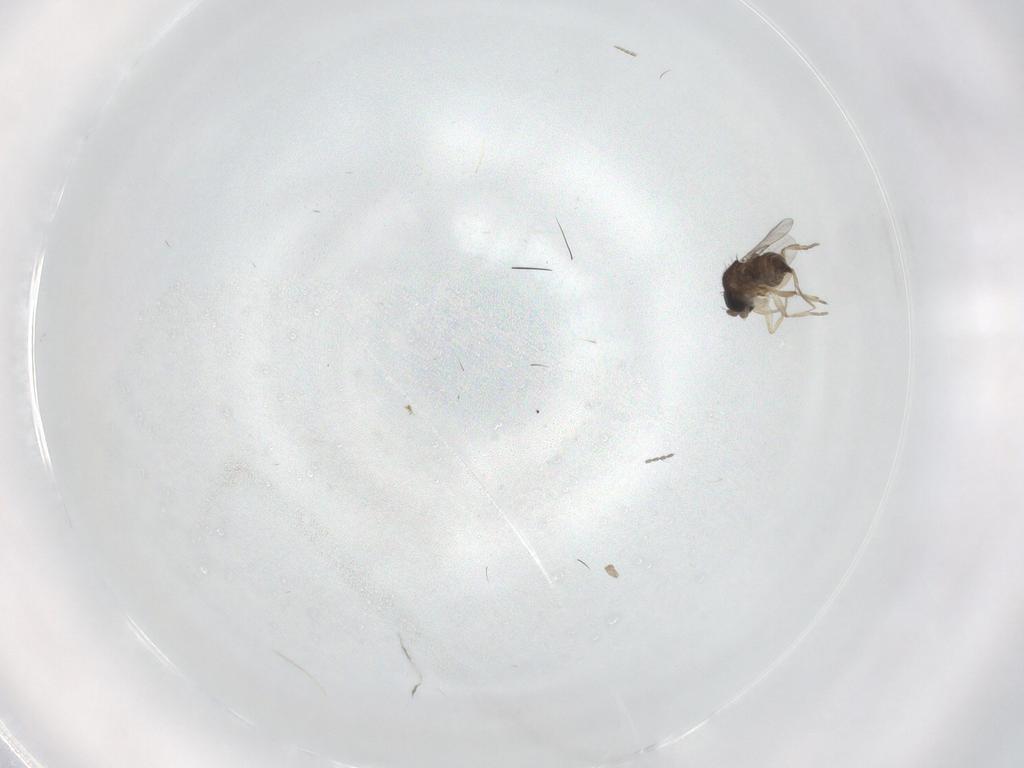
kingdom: Animalia
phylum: Arthropoda
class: Insecta
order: Diptera
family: Phoridae
